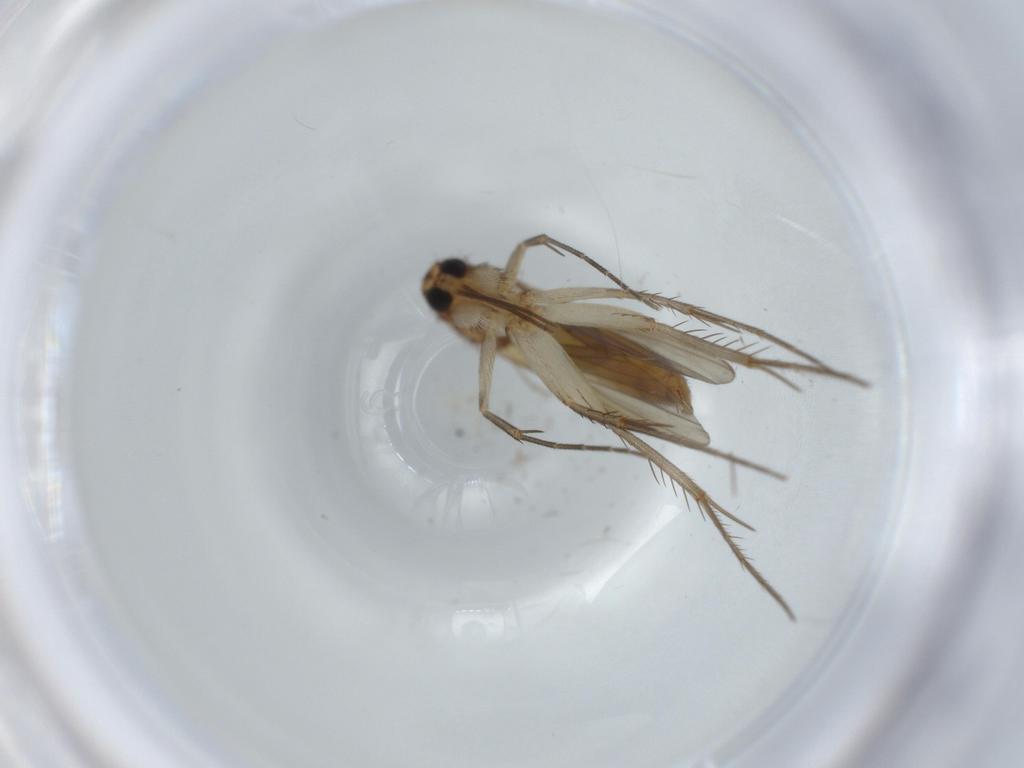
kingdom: Animalia
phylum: Arthropoda
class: Insecta
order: Diptera
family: Mycetophilidae
